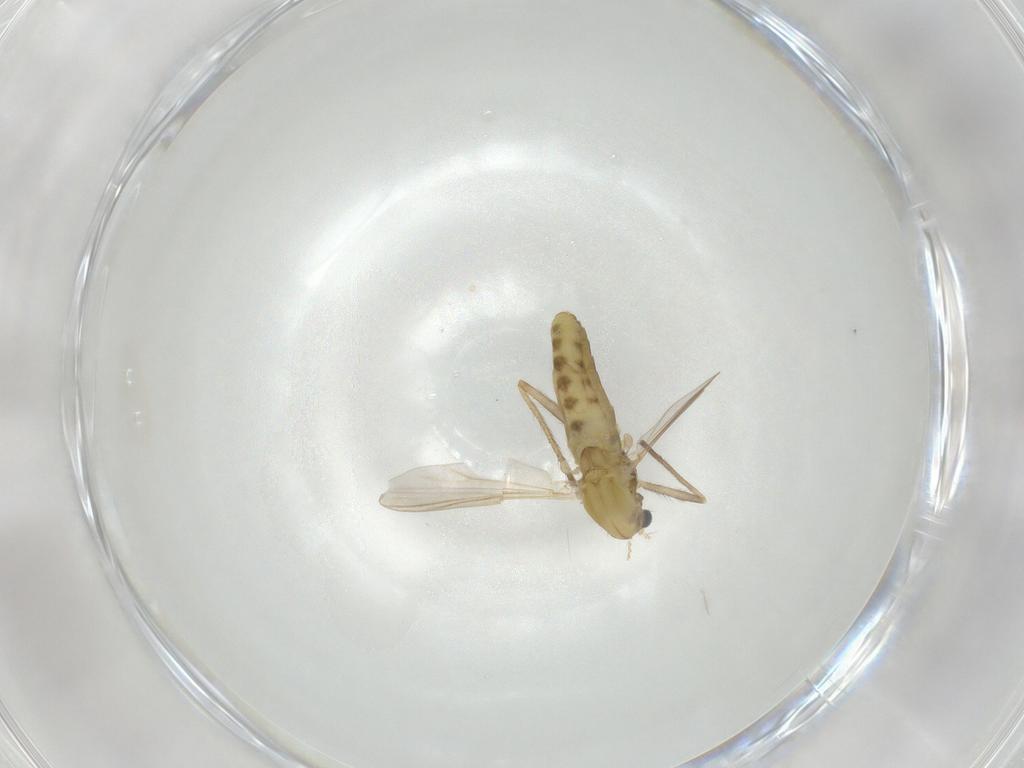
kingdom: Animalia
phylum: Arthropoda
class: Insecta
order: Diptera
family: Chironomidae
